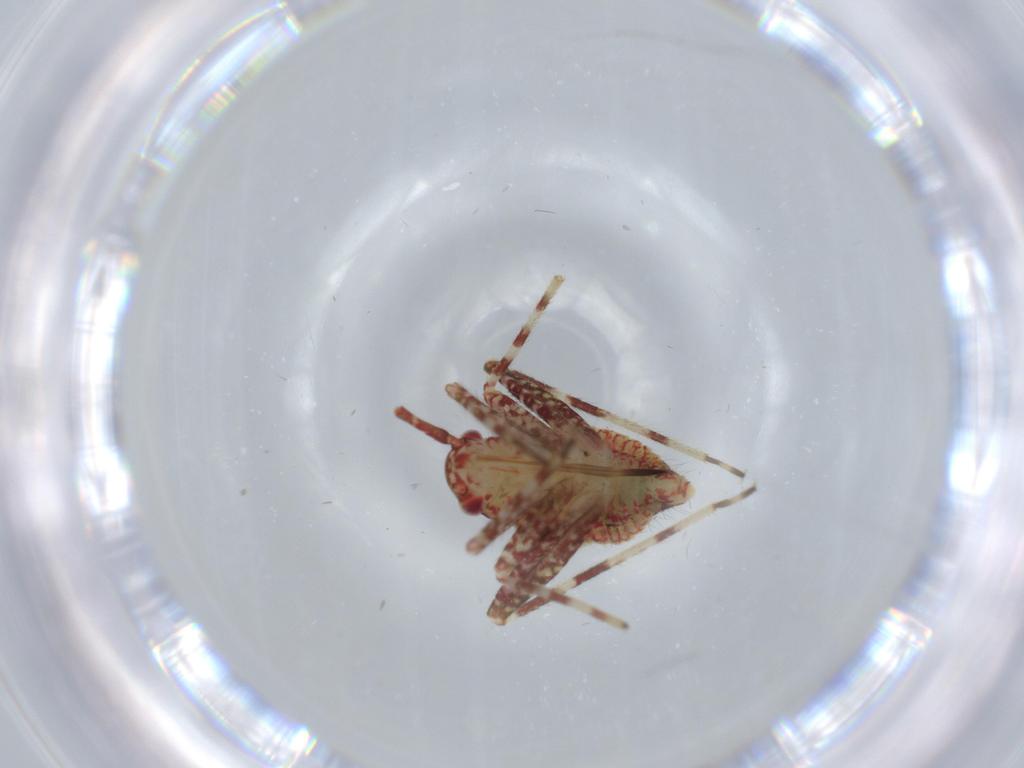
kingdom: Animalia
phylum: Arthropoda
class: Insecta
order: Hemiptera
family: Miridae
